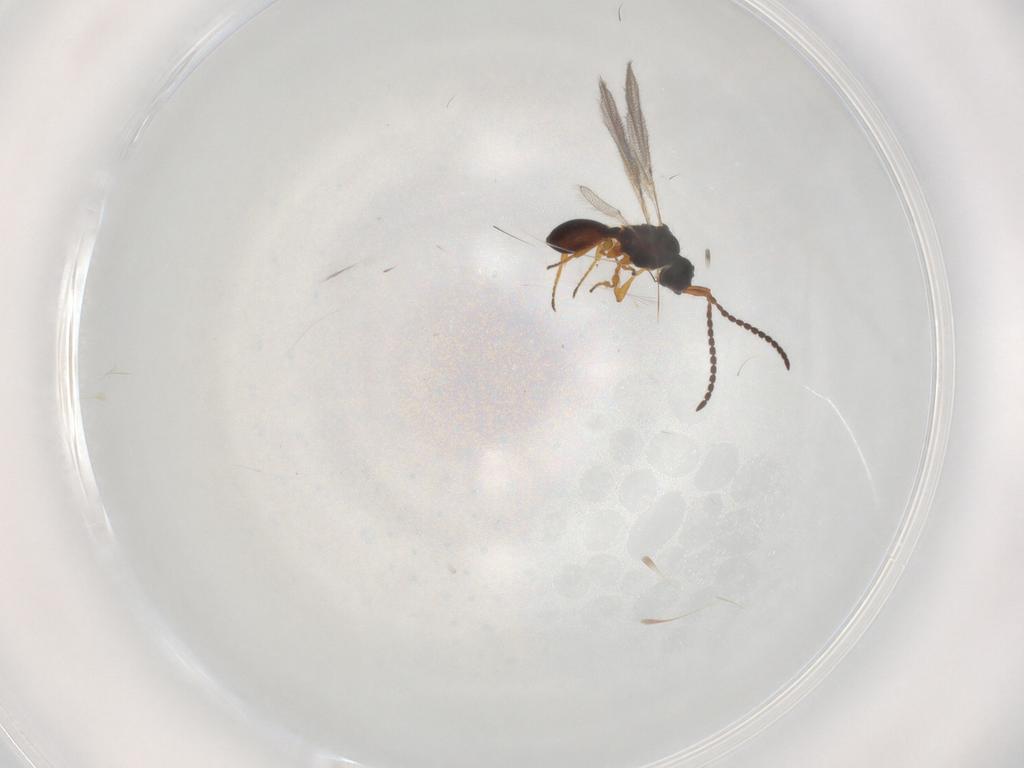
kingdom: Animalia
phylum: Arthropoda
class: Insecta
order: Hymenoptera
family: Diapriidae
